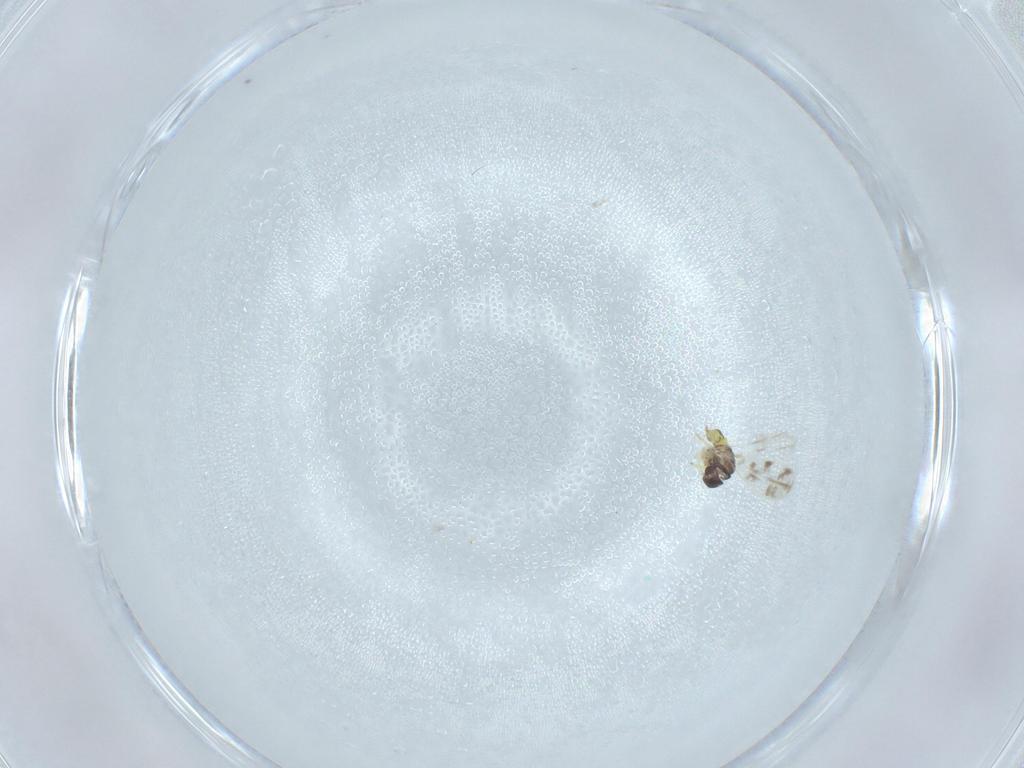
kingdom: Animalia
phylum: Arthropoda
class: Insecta
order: Hemiptera
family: Aleyrodidae
